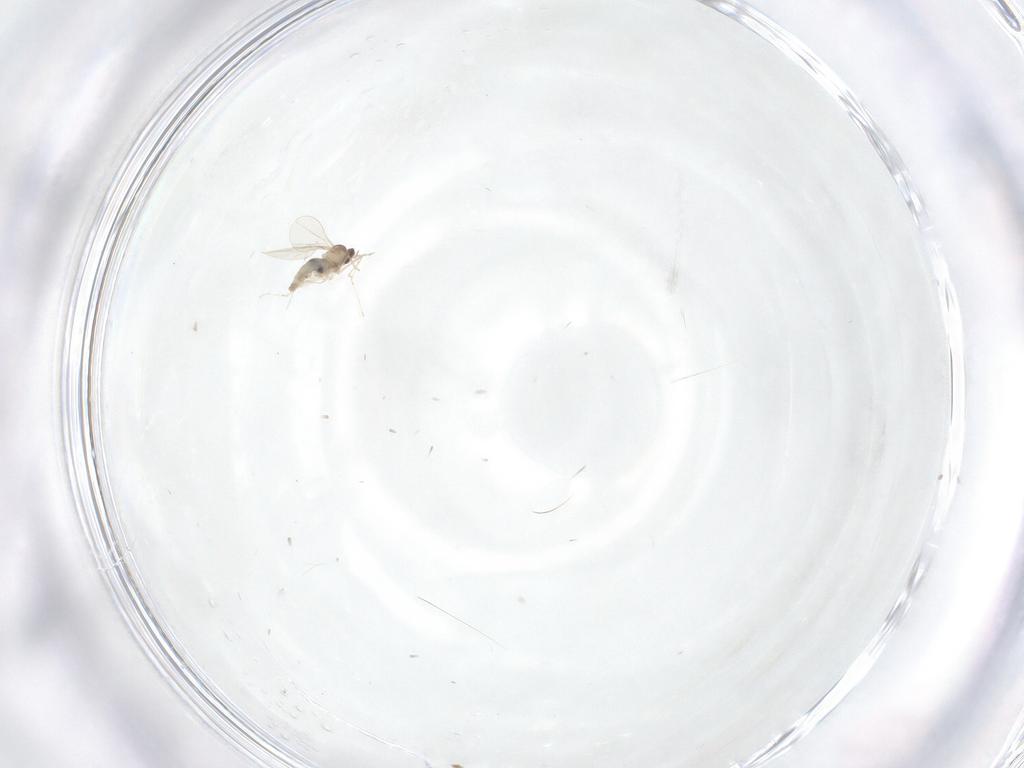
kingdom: Animalia
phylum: Arthropoda
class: Insecta
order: Diptera
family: Cecidomyiidae
